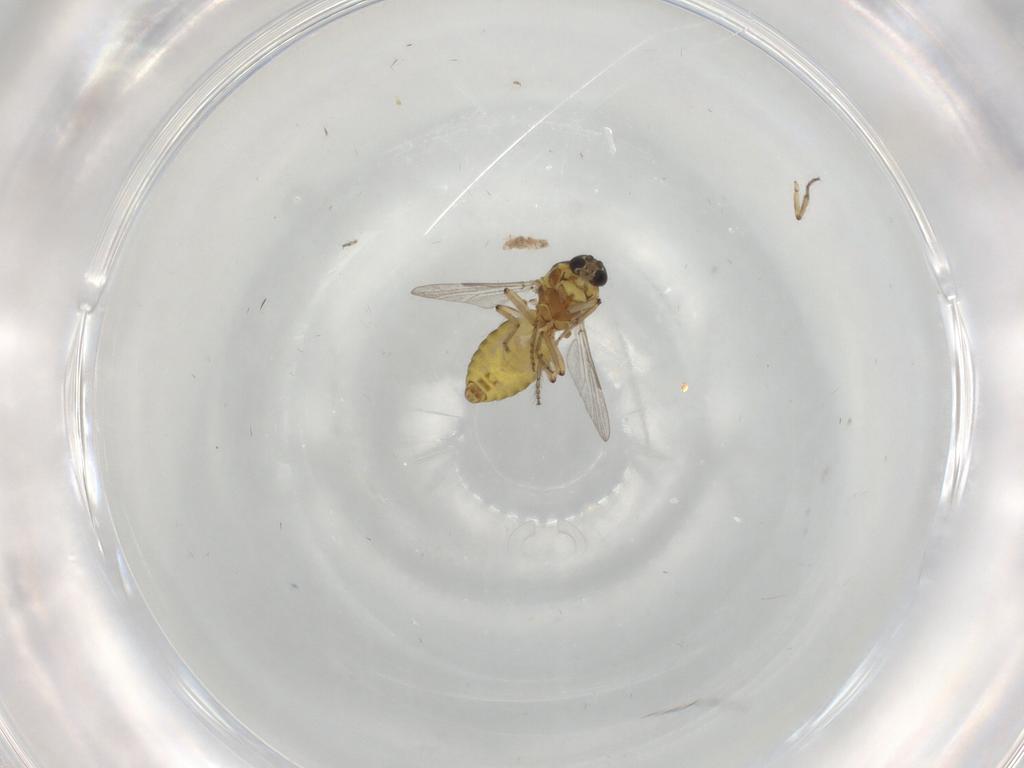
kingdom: Animalia
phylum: Arthropoda
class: Insecta
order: Diptera
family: Ceratopogonidae
